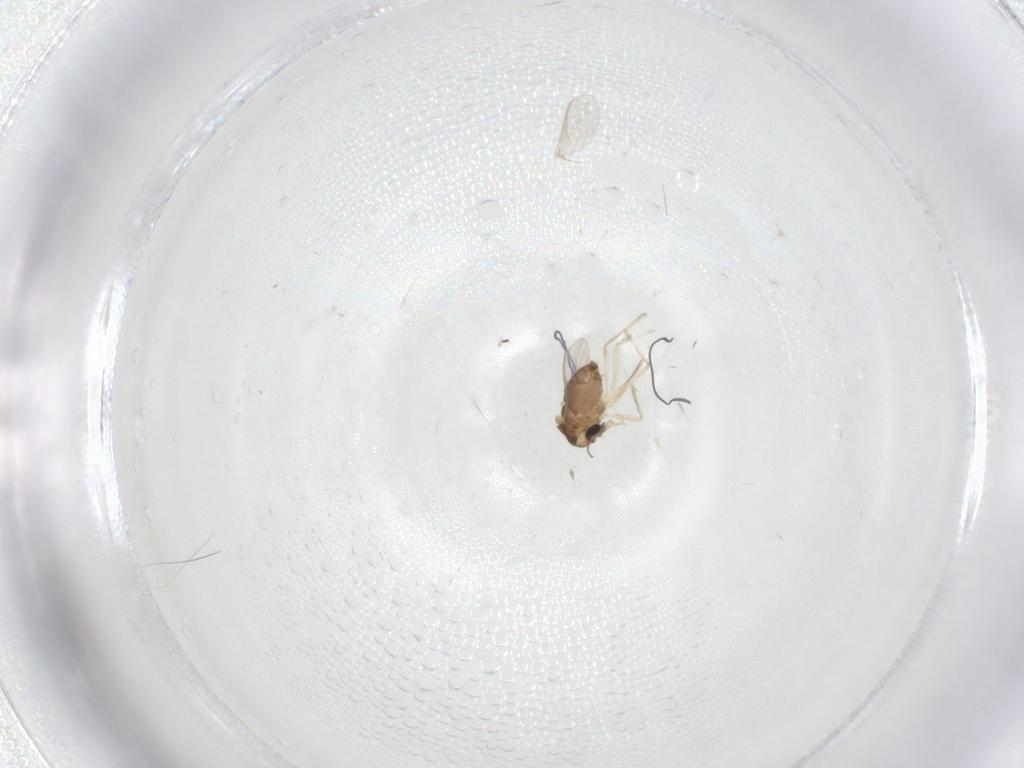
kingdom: Animalia
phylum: Arthropoda
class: Insecta
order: Diptera
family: Chironomidae
